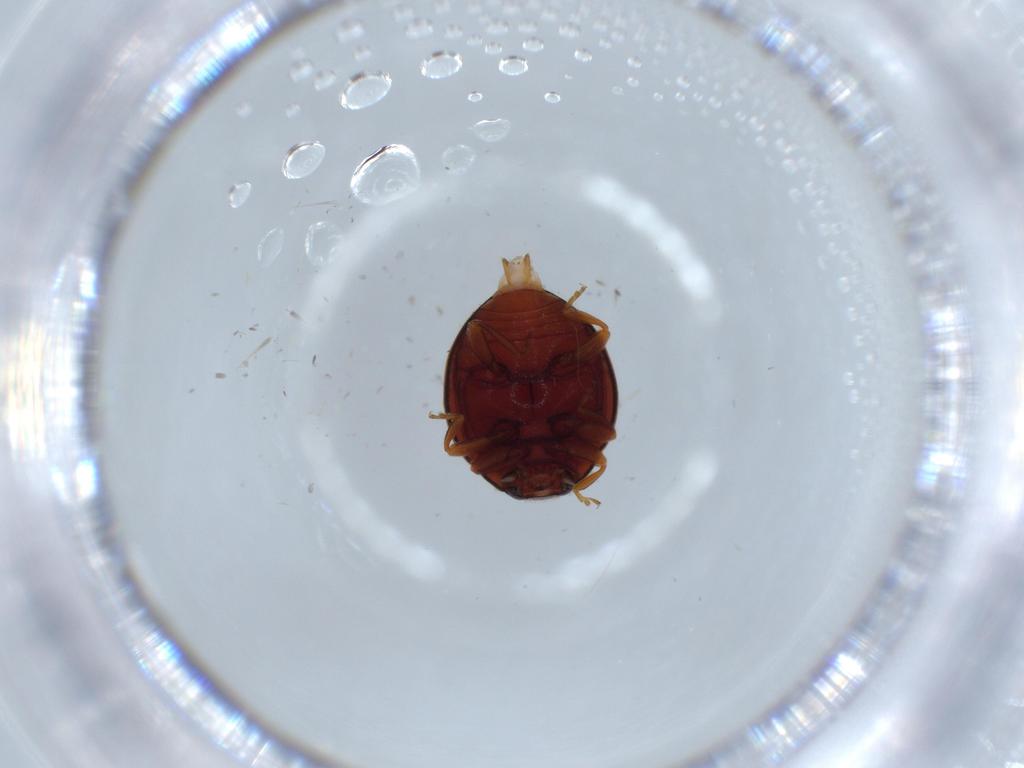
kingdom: Animalia
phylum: Arthropoda
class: Insecta
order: Coleoptera
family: Coccinellidae
